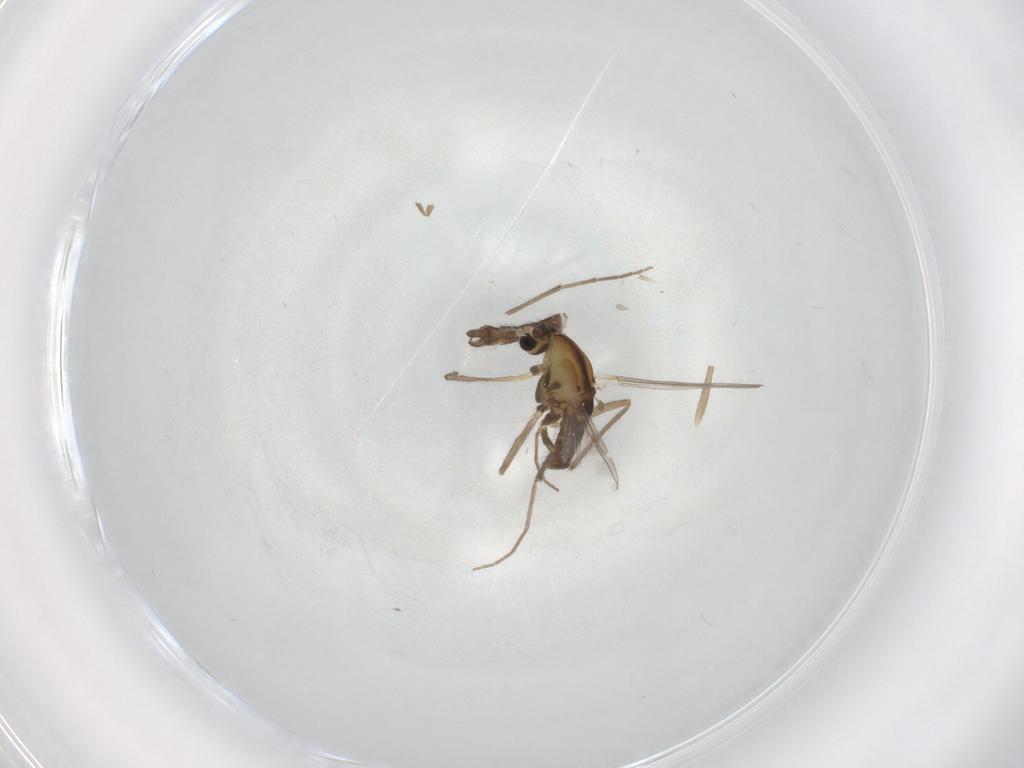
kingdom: Animalia
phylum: Arthropoda
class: Insecta
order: Diptera
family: Chironomidae
